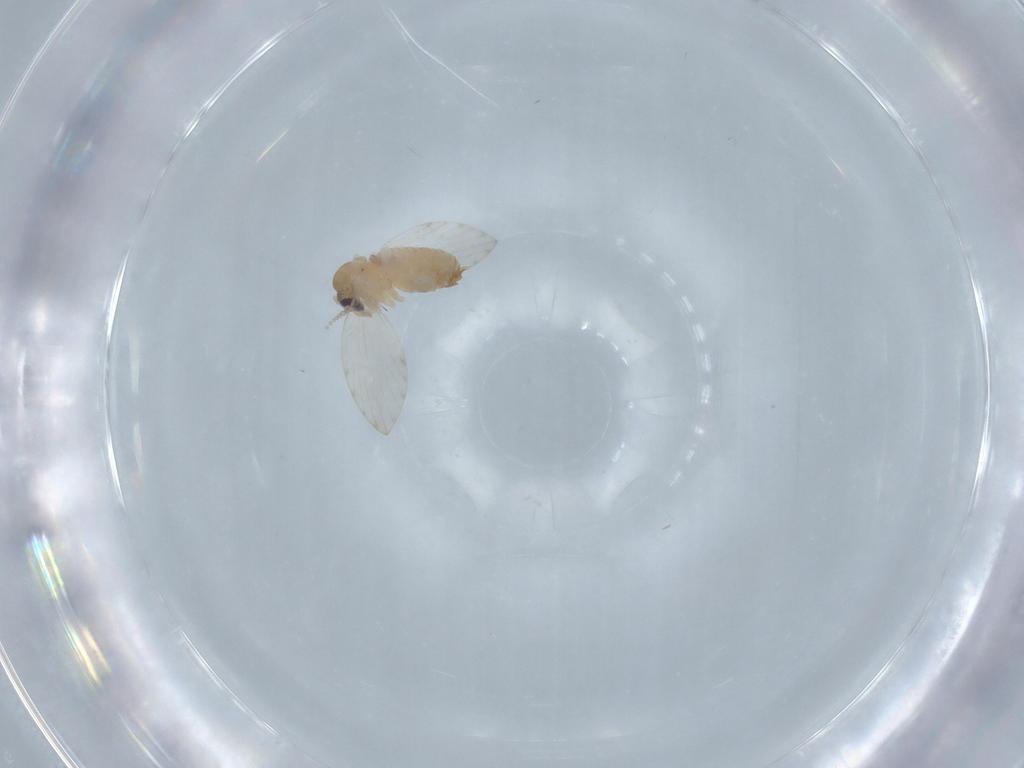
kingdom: Animalia
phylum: Arthropoda
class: Insecta
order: Diptera
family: Psychodidae
